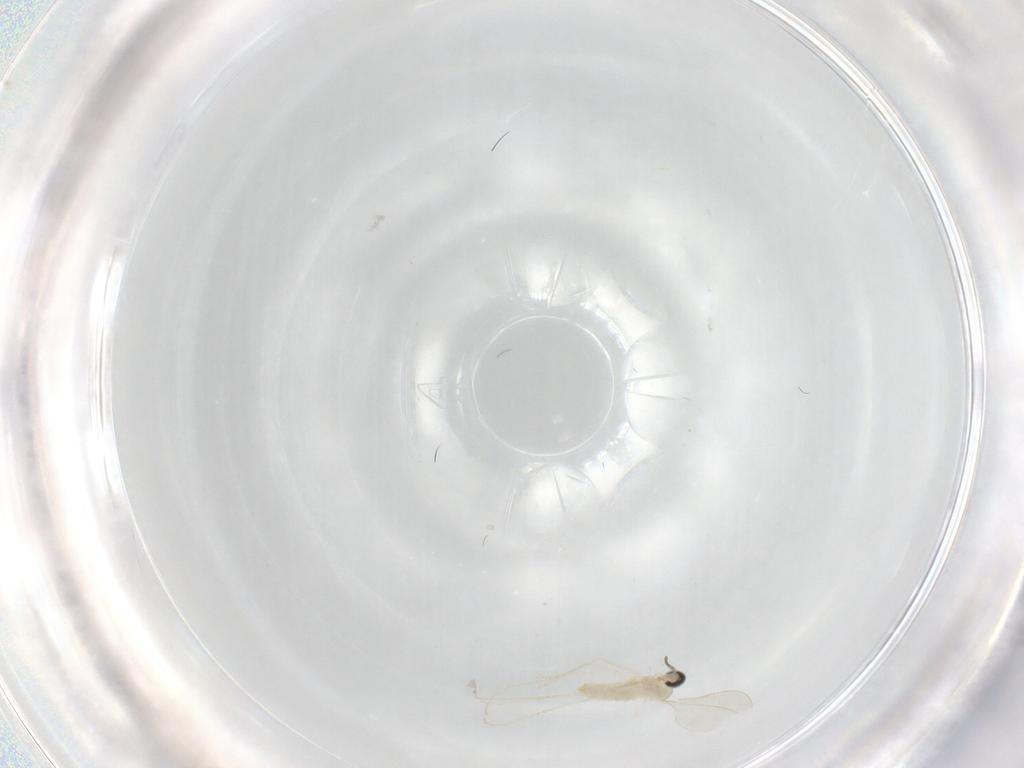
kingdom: Animalia
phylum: Arthropoda
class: Insecta
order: Diptera
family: Cecidomyiidae
